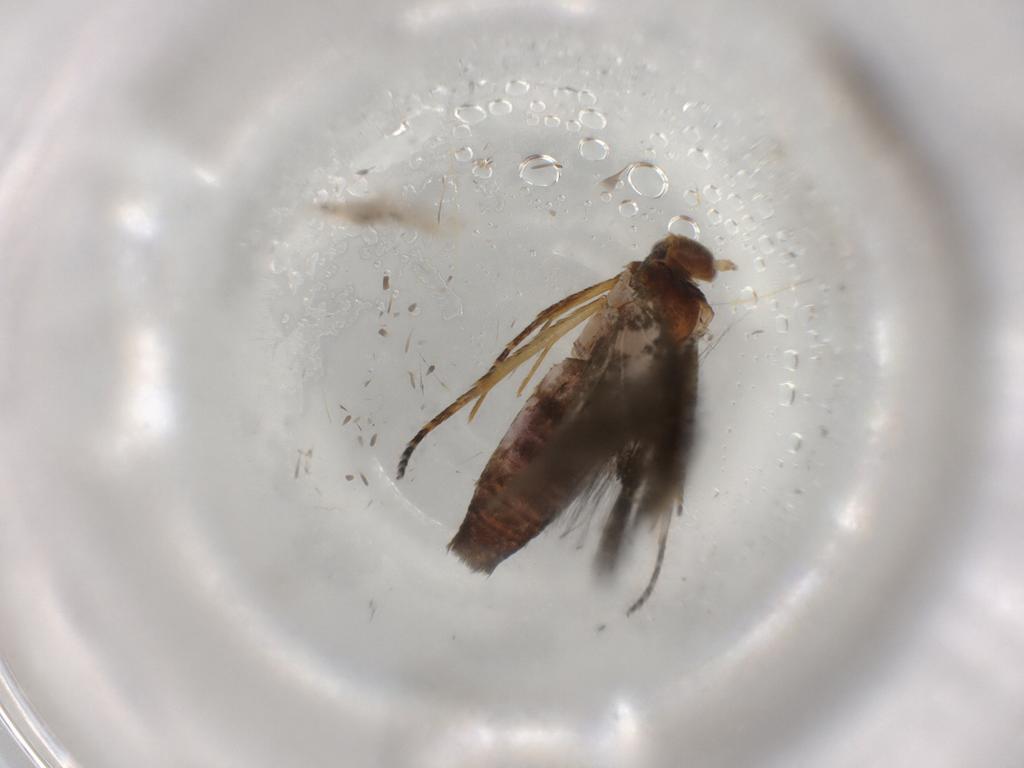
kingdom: Animalia
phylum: Arthropoda
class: Insecta
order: Lepidoptera
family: Blastobasidae
